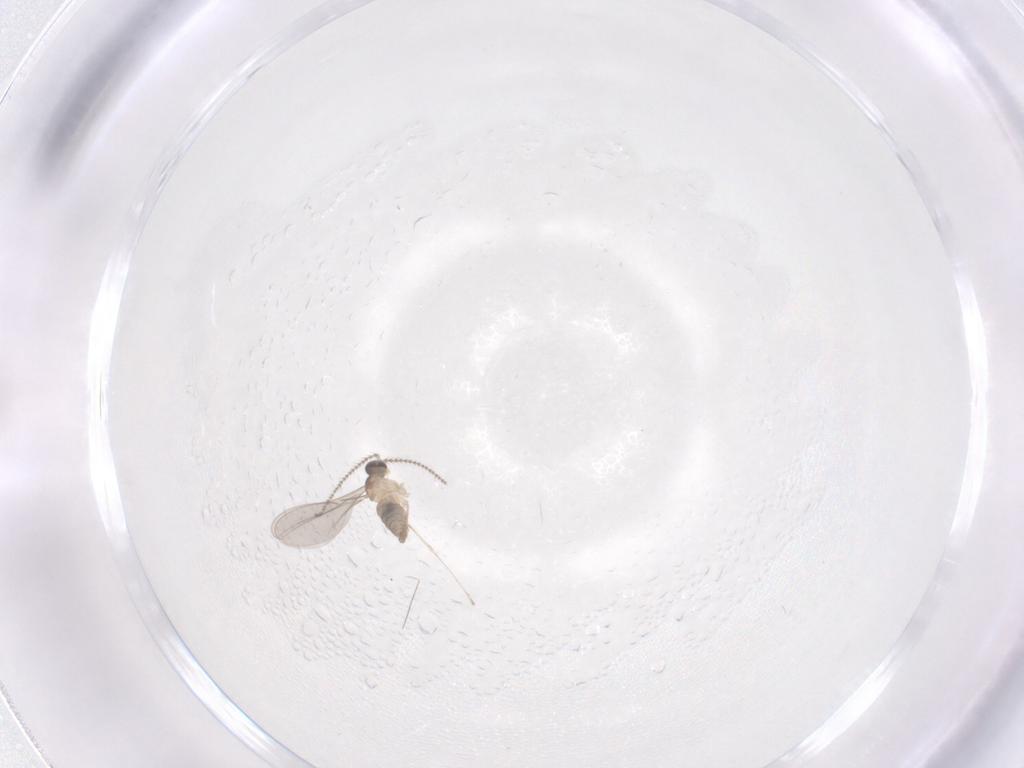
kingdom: Animalia
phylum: Arthropoda
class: Insecta
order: Diptera
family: Cecidomyiidae
